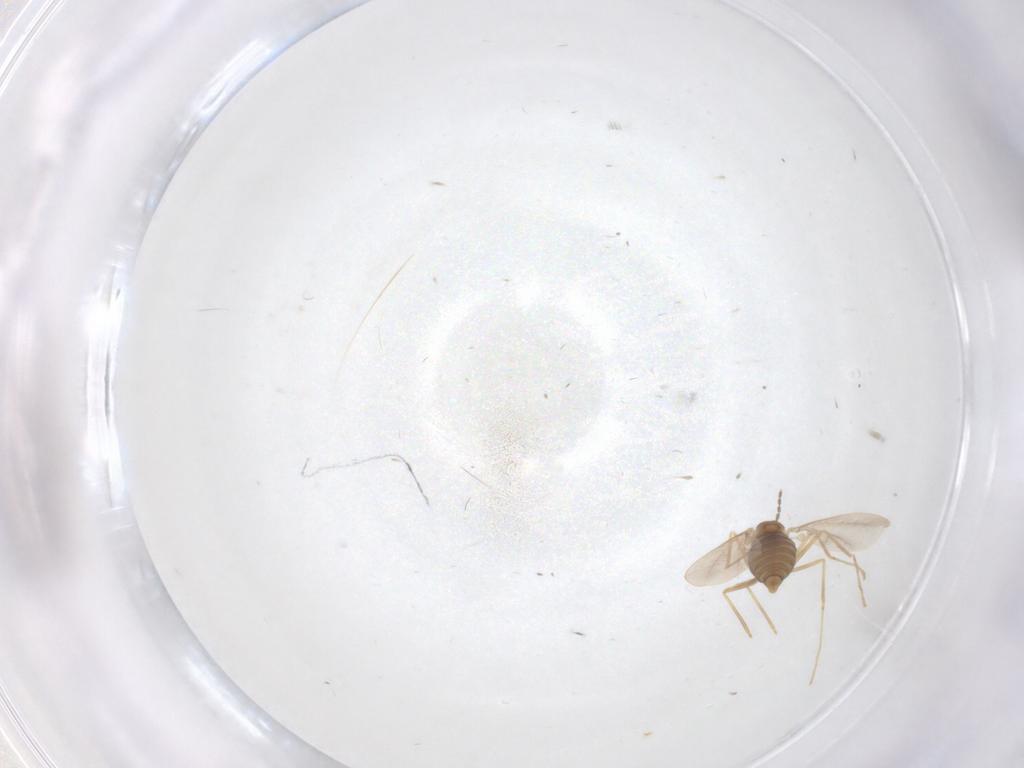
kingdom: Animalia
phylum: Arthropoda
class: Insecta
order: Diptera
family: Cecidomyiidae
